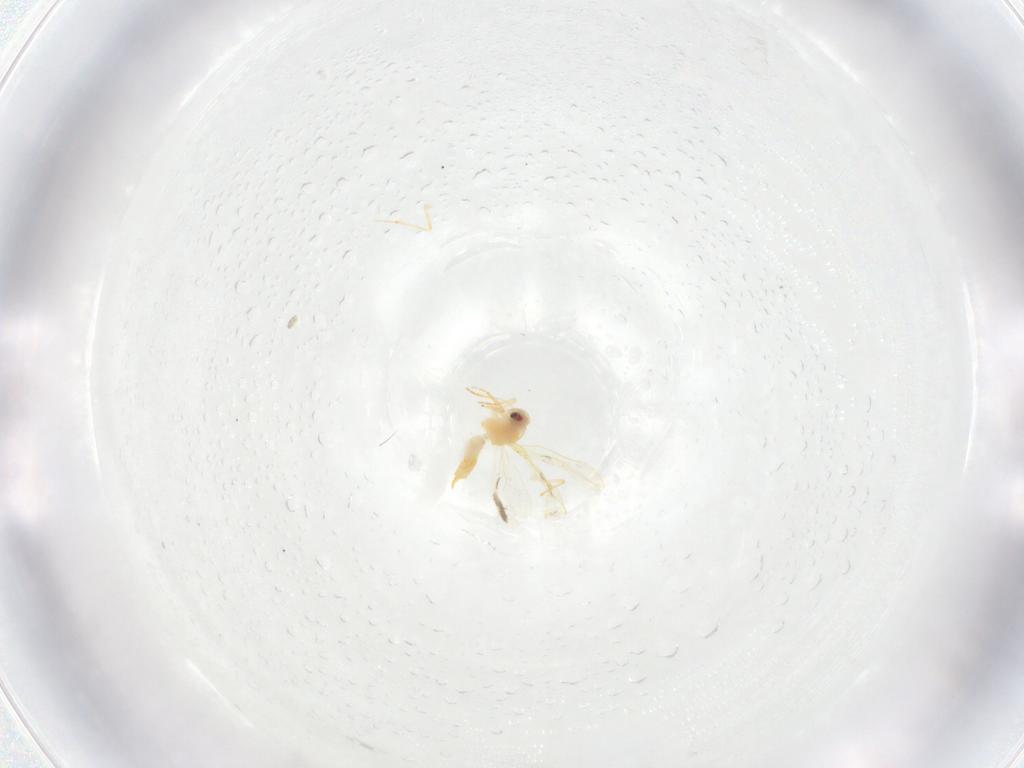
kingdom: Animalia
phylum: Arthropoda
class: Insecta
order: Hemiptera
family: Aleyrodidae
